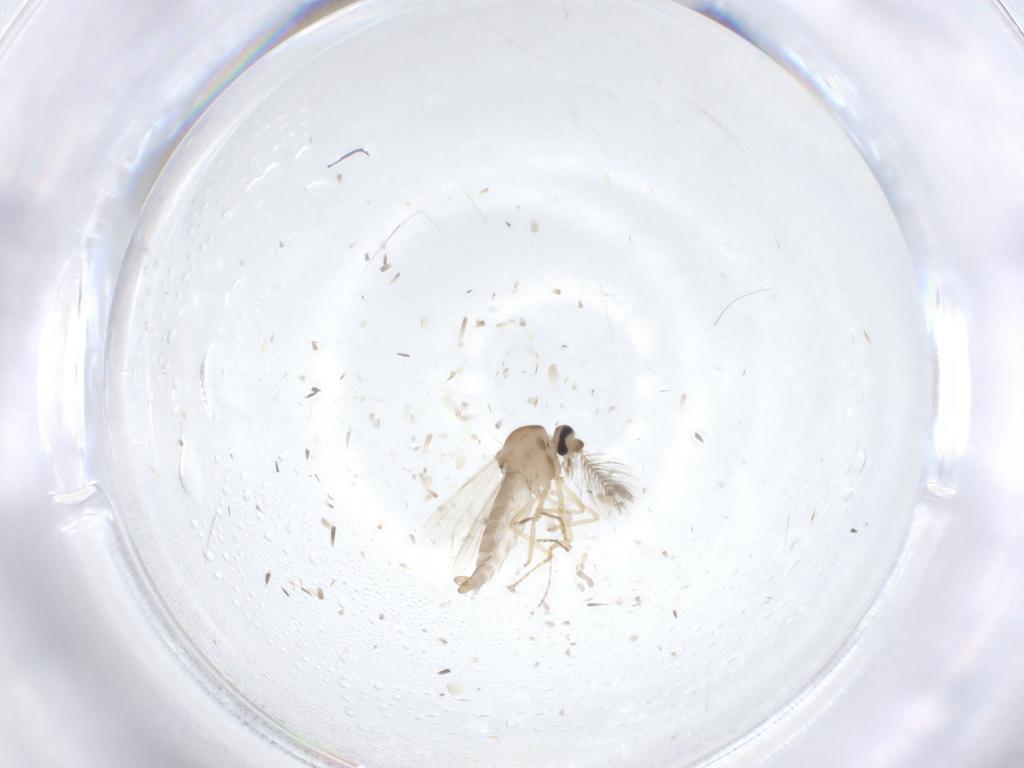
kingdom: Animalia
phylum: Arthropoda
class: Insecta
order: Diptera
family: Ceratopogonidae
